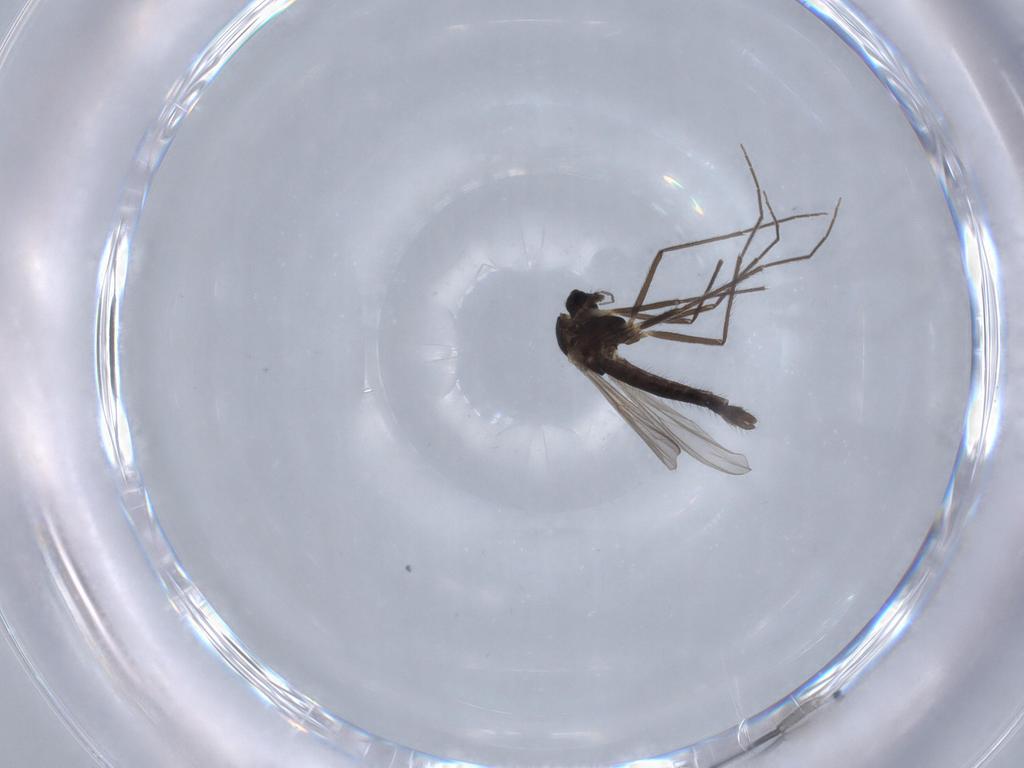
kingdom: Animalia
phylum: Arthropoda
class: Insecta
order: Diptera
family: Chironomidae
